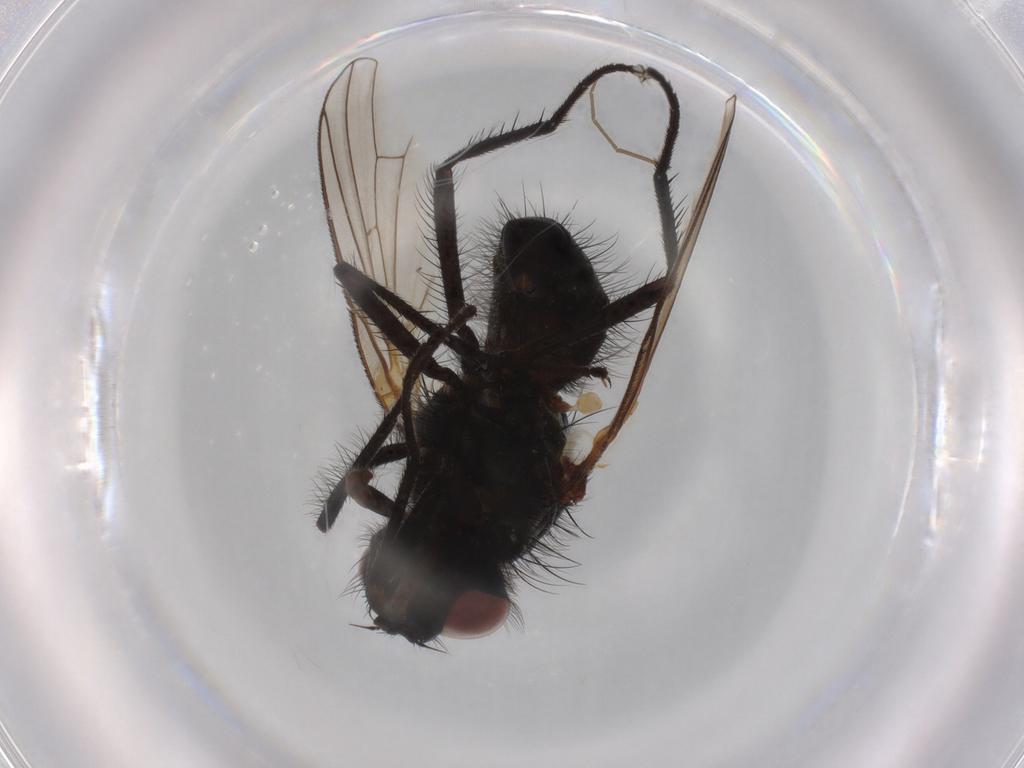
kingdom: Animalia
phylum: Arthropoda
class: Insecta
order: Diptera
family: Anthomyiidae
